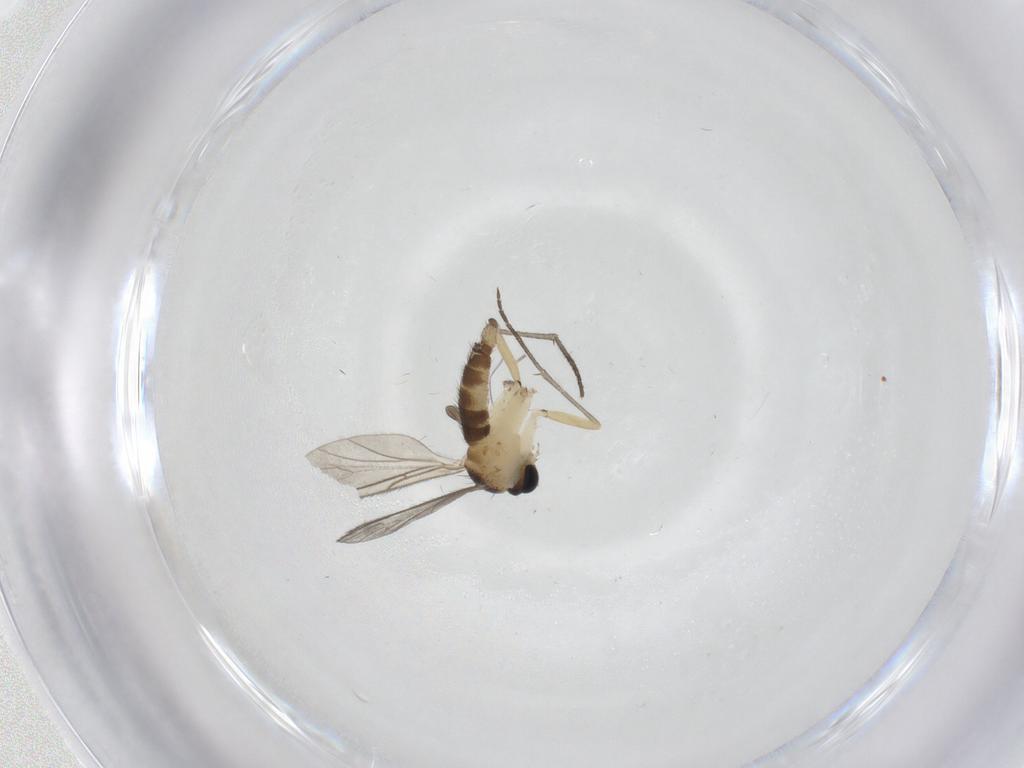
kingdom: Animalia
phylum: Arthropoda
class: Insecta
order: Diptera
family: Sciaridae
